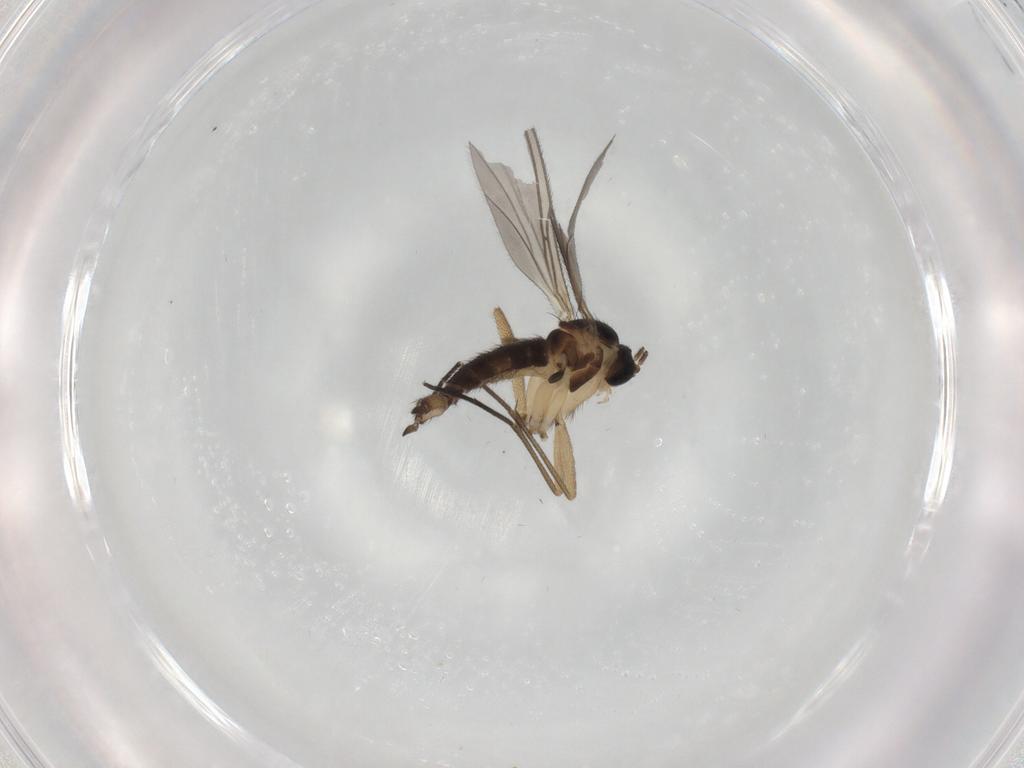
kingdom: Animalia
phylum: Arthropoda
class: Insecta
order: Diptera
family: Sciaridae
